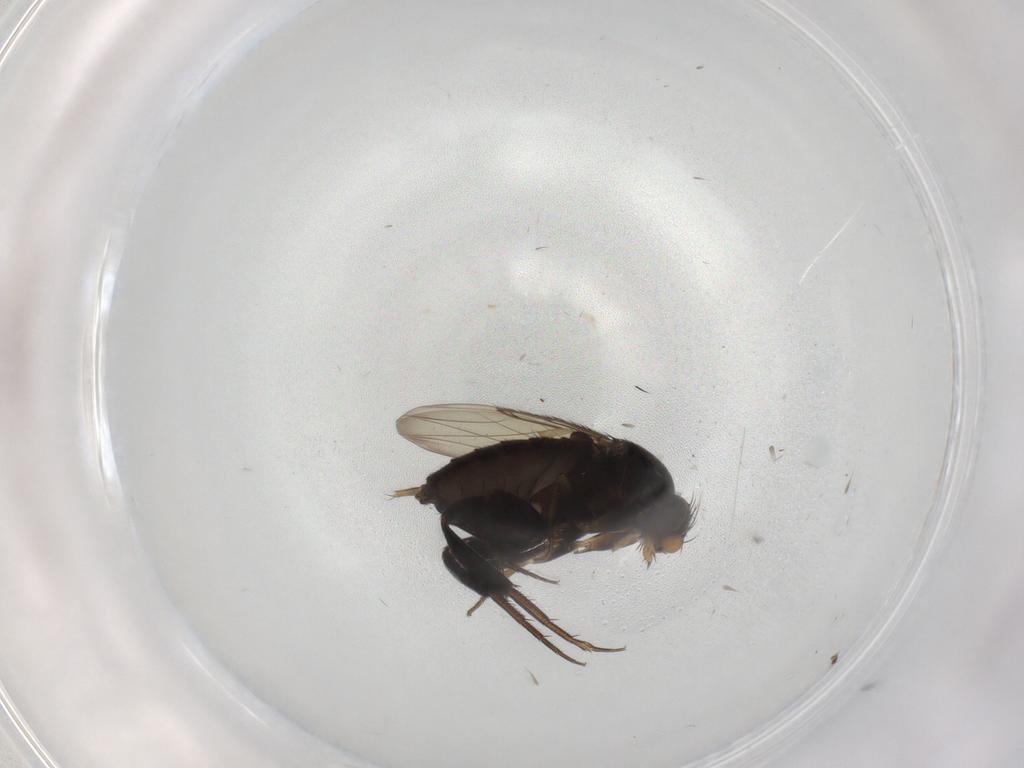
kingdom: Animalia
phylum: Arthropoda
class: Insecta
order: Diptera
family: Phoridae
